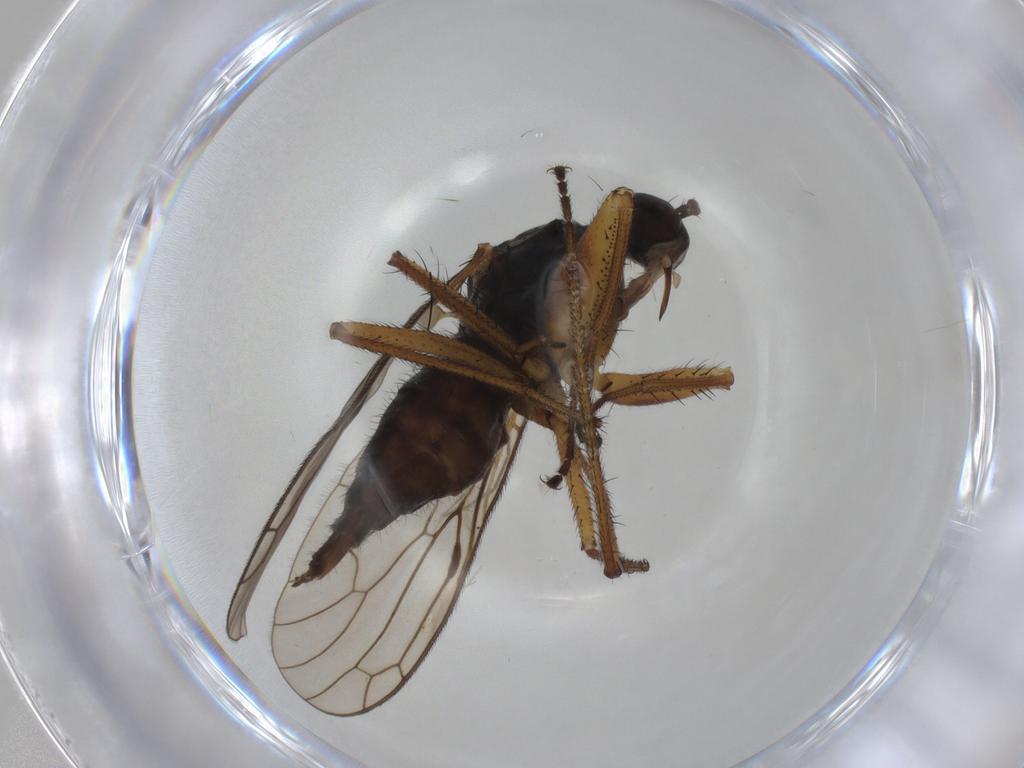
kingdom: Animalia
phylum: Arthropoda
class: Insecta
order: Diptera
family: Empididae
